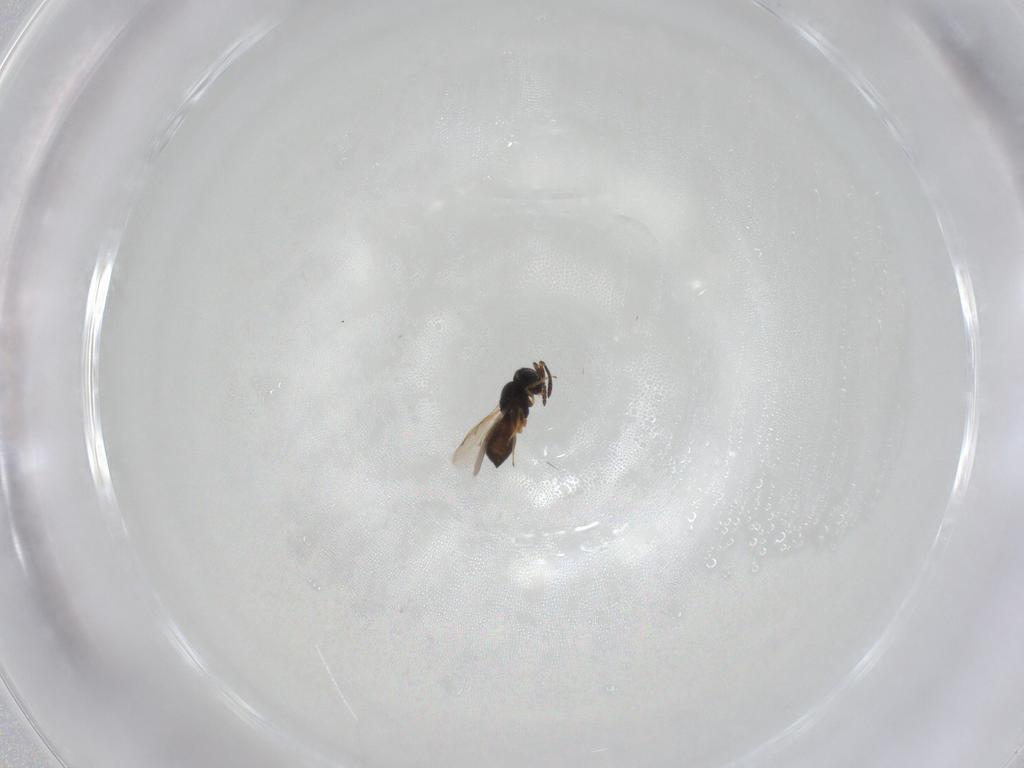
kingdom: Animalia
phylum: Arthropoda
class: Insecta
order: Hymenoptera
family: Scelionidae
